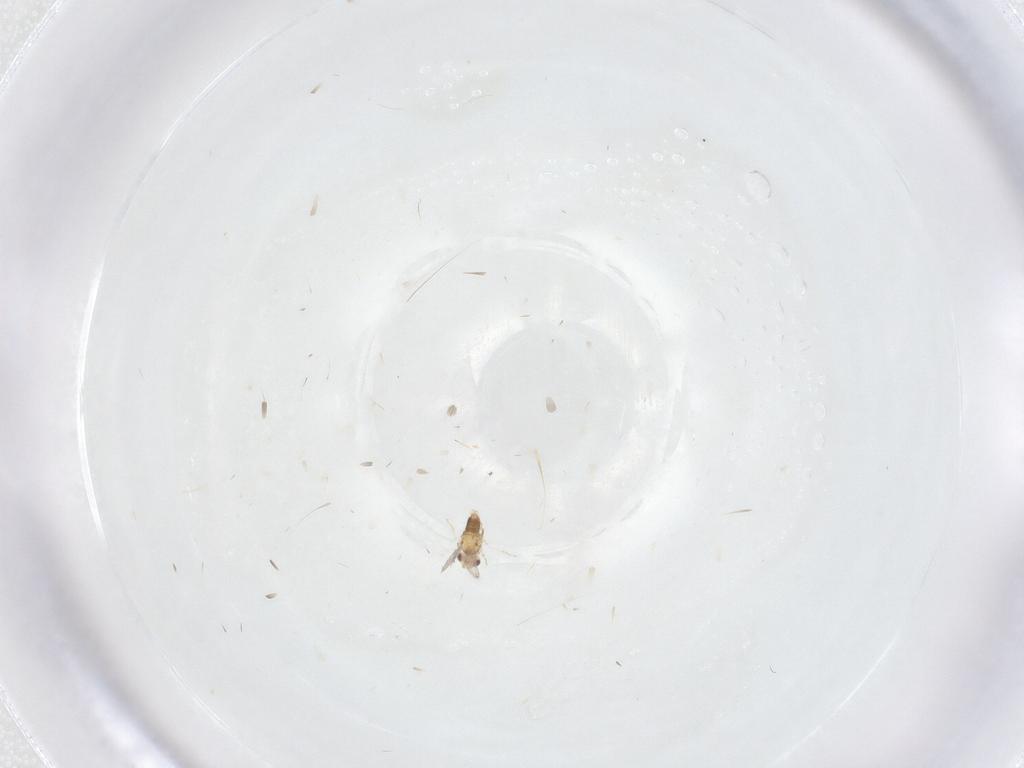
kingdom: Animalia
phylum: Arthropoda
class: Insecta
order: Hymenoptera
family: Aphelinidae
